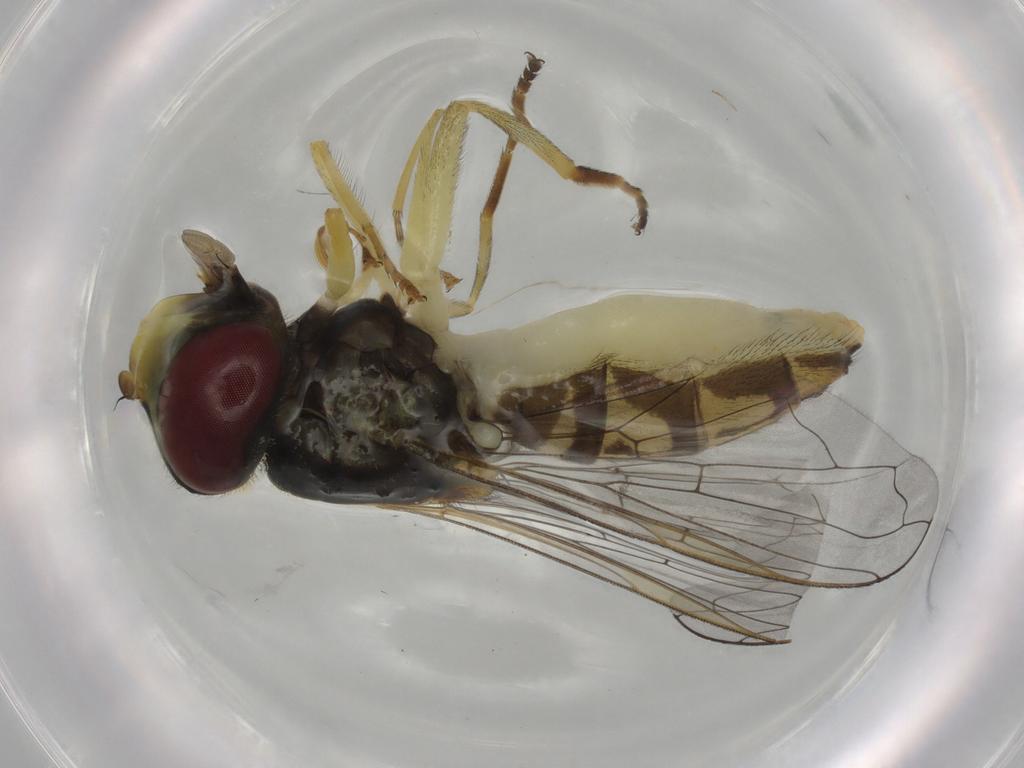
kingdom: Animalia
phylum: Arthropoda
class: Insecta
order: Diptera
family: Syrphidae
